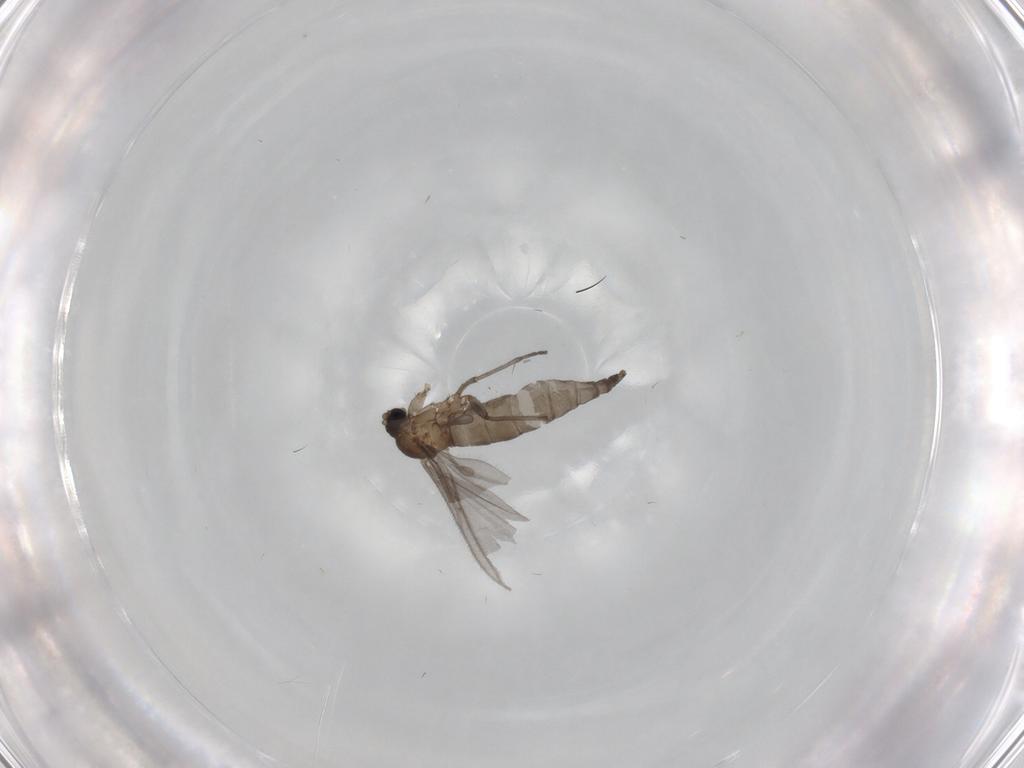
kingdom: Animalia
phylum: Arthropoda
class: Insecta
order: Diptera
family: Sciaridae
